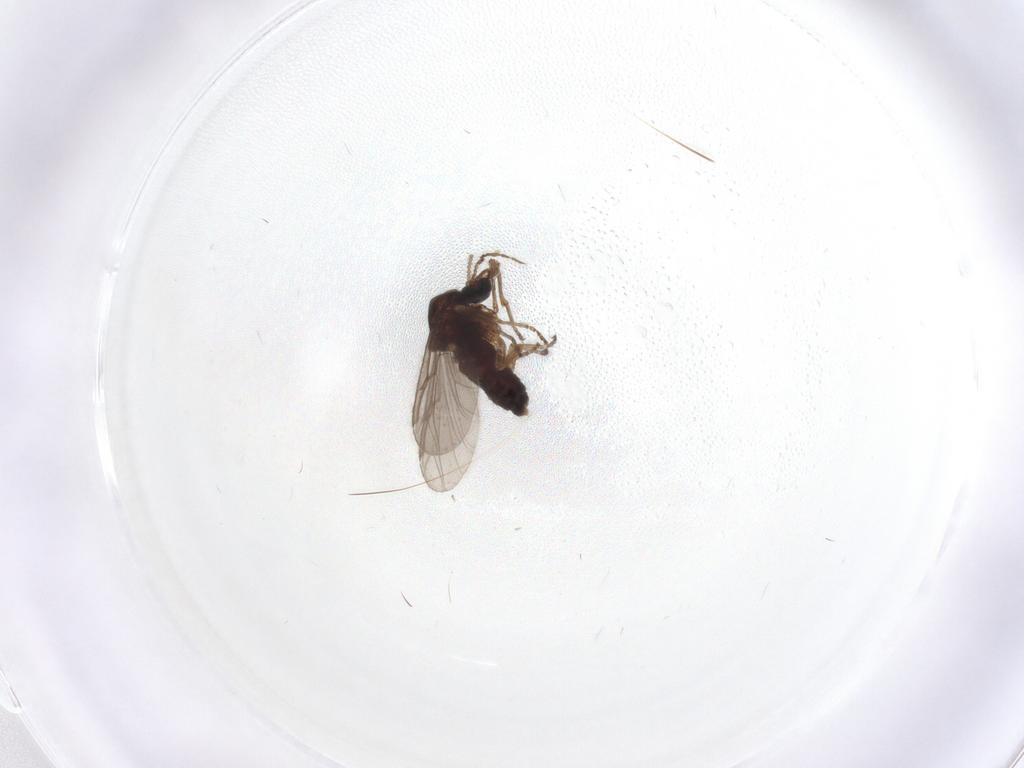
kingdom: Animalia
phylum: Arthropoda
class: Insecta
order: Diptera
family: Ceratopogonidae
